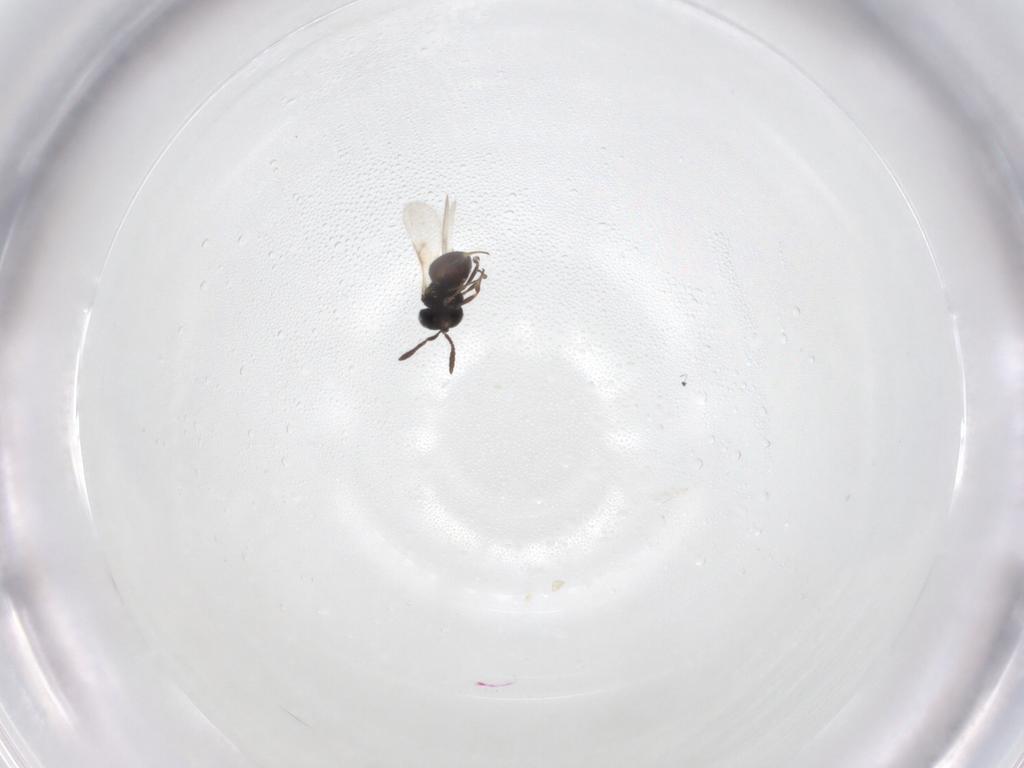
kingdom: Animalia
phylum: Arthropoda
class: Insecta
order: Hymenoptera
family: Scelionidae
